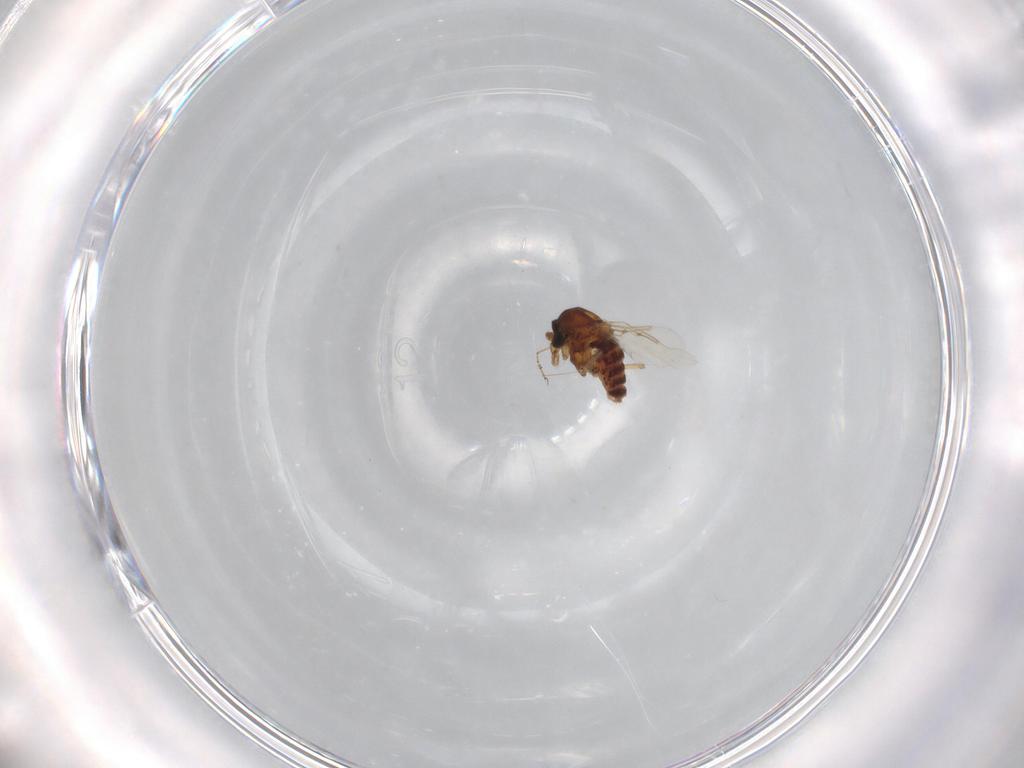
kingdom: Animalia
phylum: Arthropoda
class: Insecta
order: Diptera
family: Ceratopogonidae
